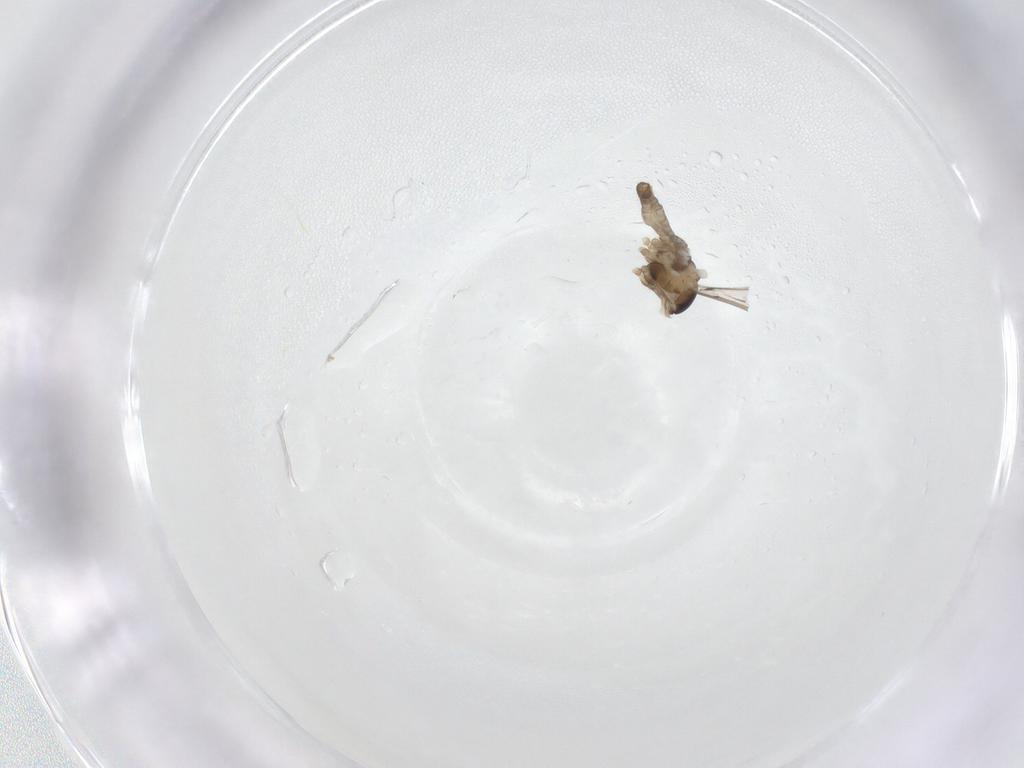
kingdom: Animalia
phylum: Arthropoda
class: Insecta
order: Diptera
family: Cecidomyiidae
